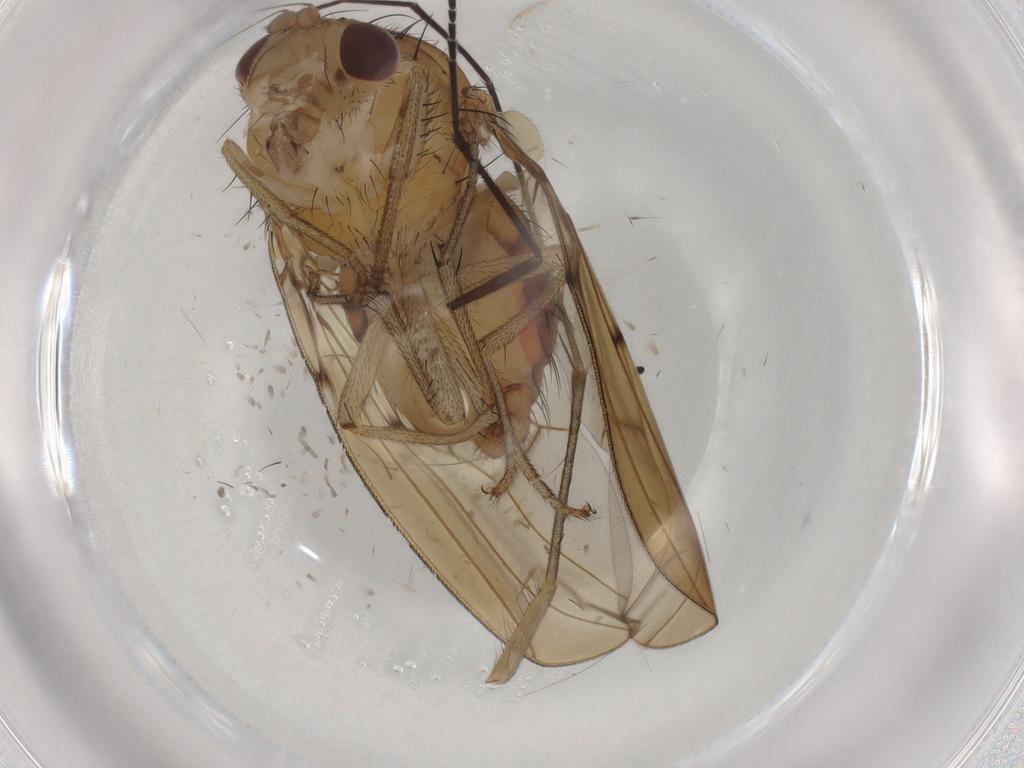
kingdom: Animalia
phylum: Arthropoda
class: Insecta
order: Diptera
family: Mycetophilidae
